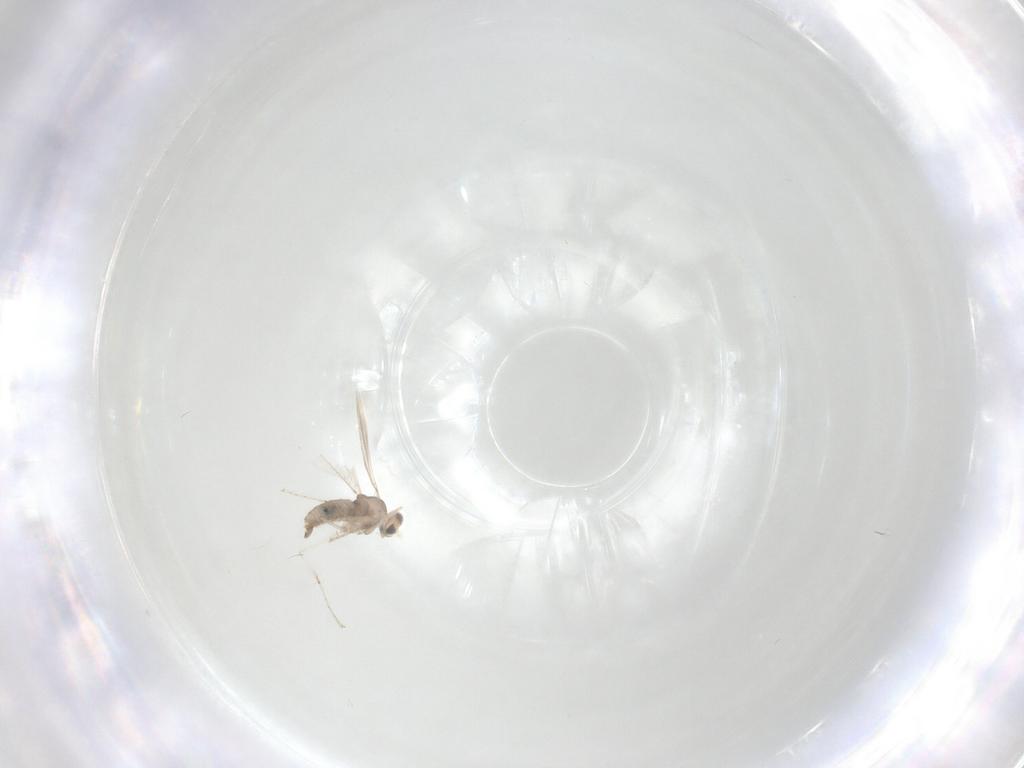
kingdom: Animalia
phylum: Arthropoda
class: Insecta
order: Diptera
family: Cecidomyiidae
